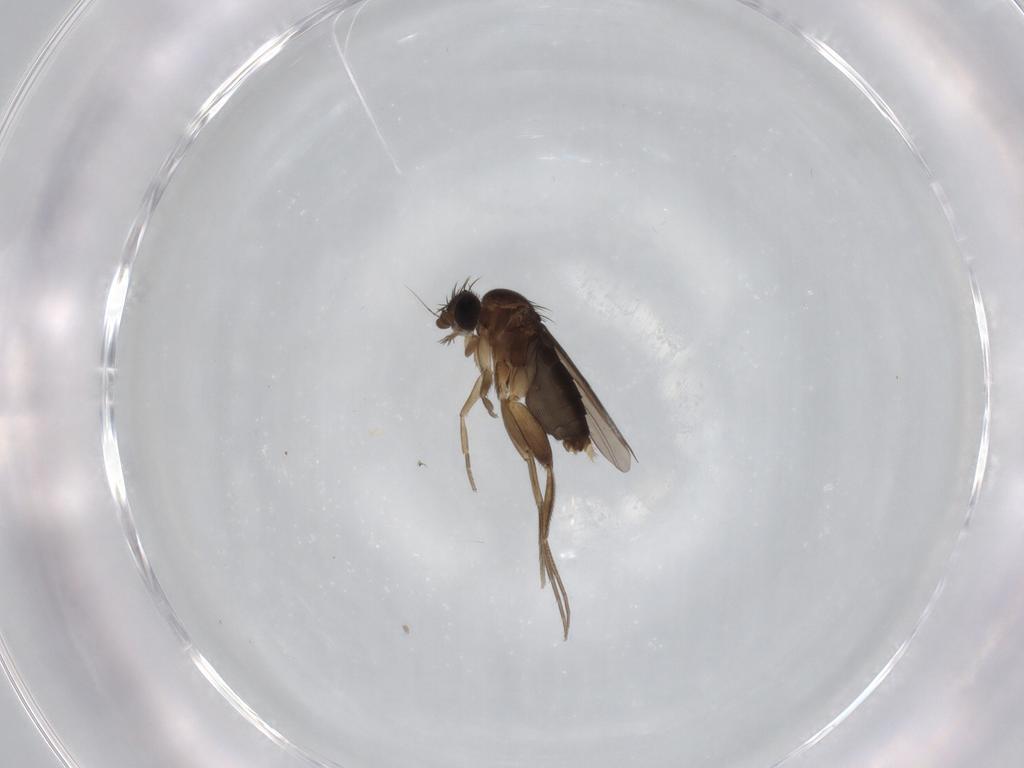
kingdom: Animalia
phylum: Arthropoda
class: Insecta
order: Diptera
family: Phoridae
